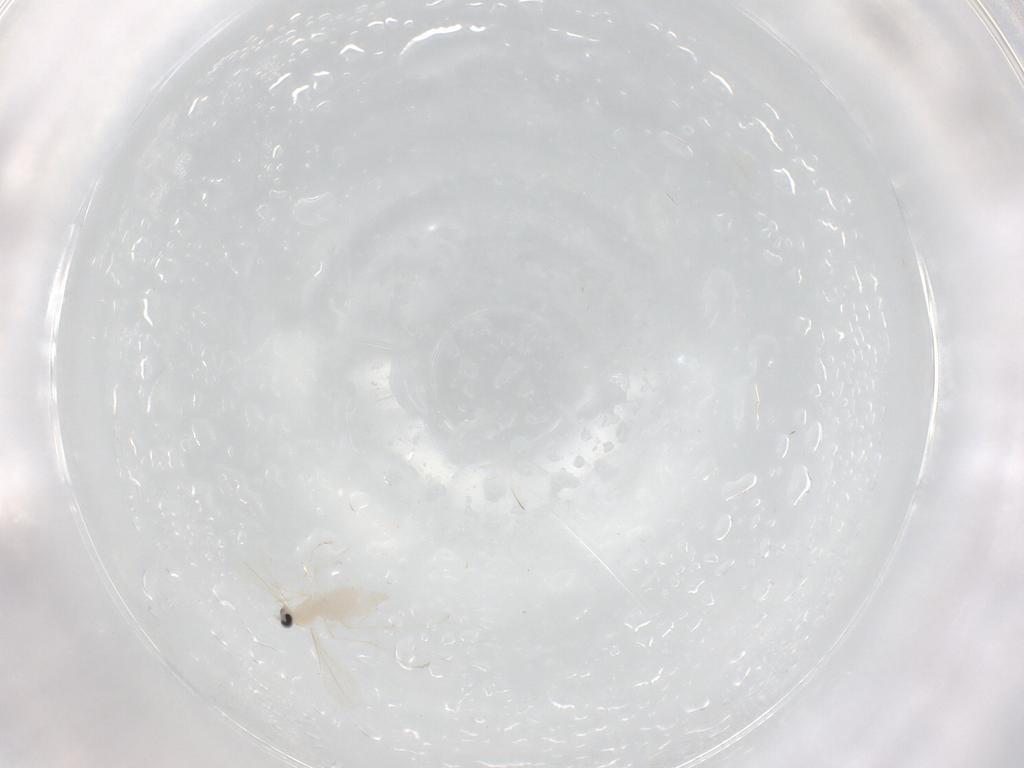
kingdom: Animalia
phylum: Arthropoda
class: Insecta
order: Diptera
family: Cecidomyiidae
